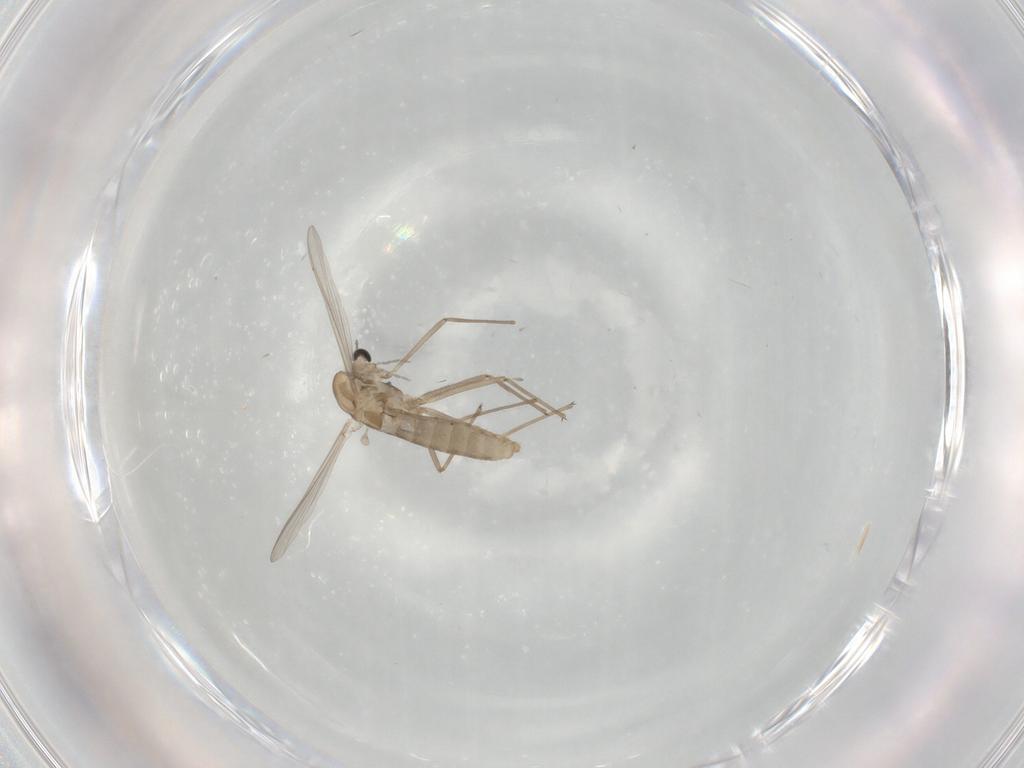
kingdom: Animalia
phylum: Arthropoda
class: Insecta
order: Diptera
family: Chironomidae
